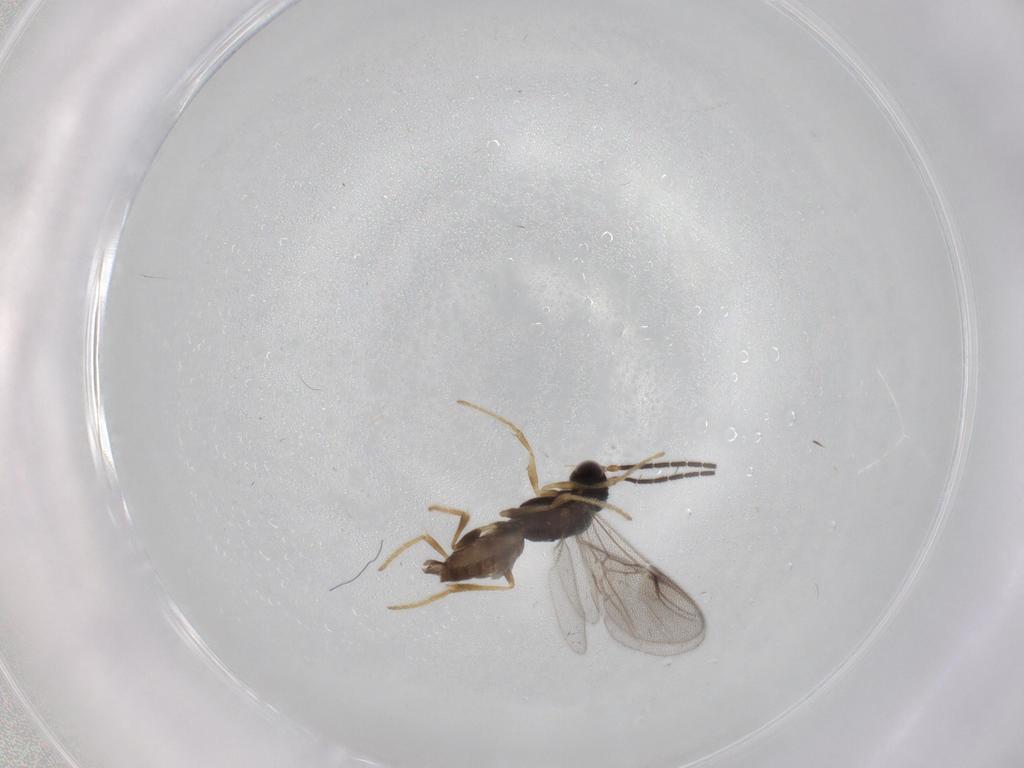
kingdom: Animalia
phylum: Arthropoda
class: Insecta
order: Hymenoptera
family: Dryinidae
